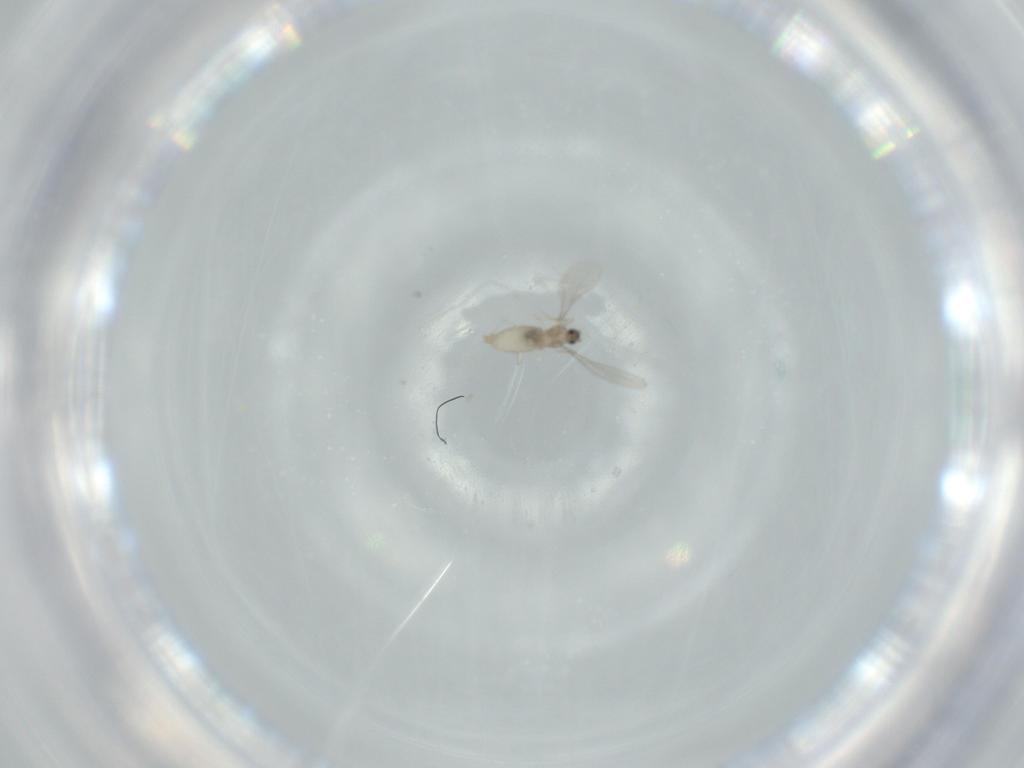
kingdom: Animalia
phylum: Arthropoda
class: Insecta
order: Diptera
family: Cecidomyiidae
